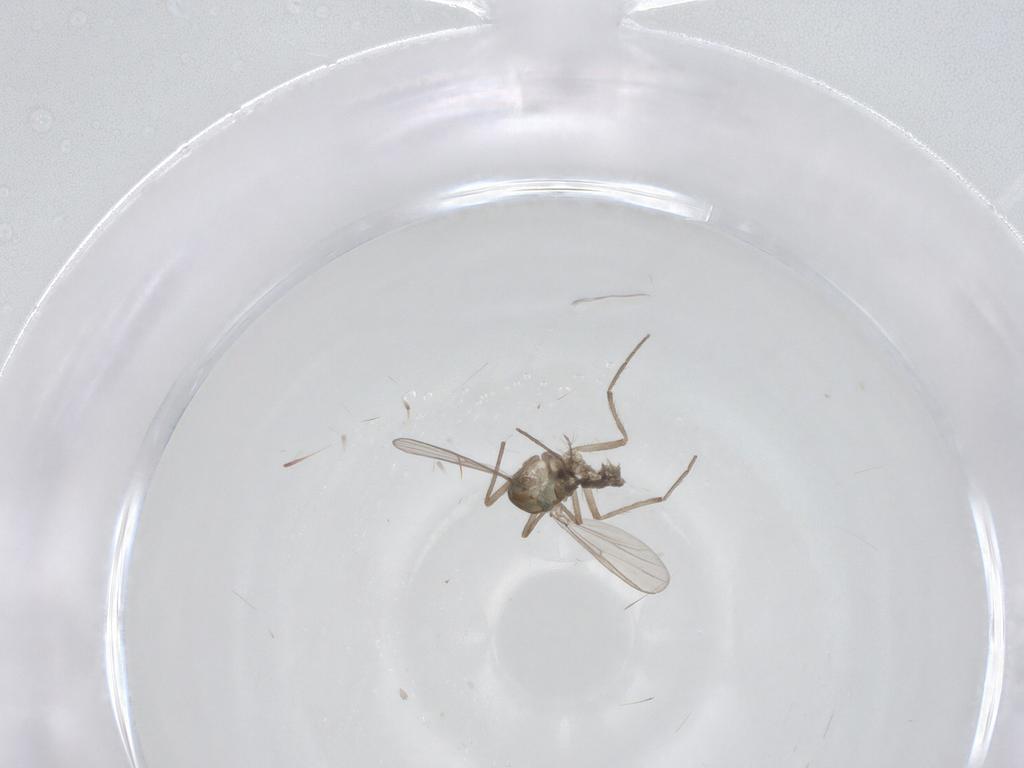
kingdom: Animalia
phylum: Arthropoda
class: Insecta
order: Diptera
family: Chironomidae
